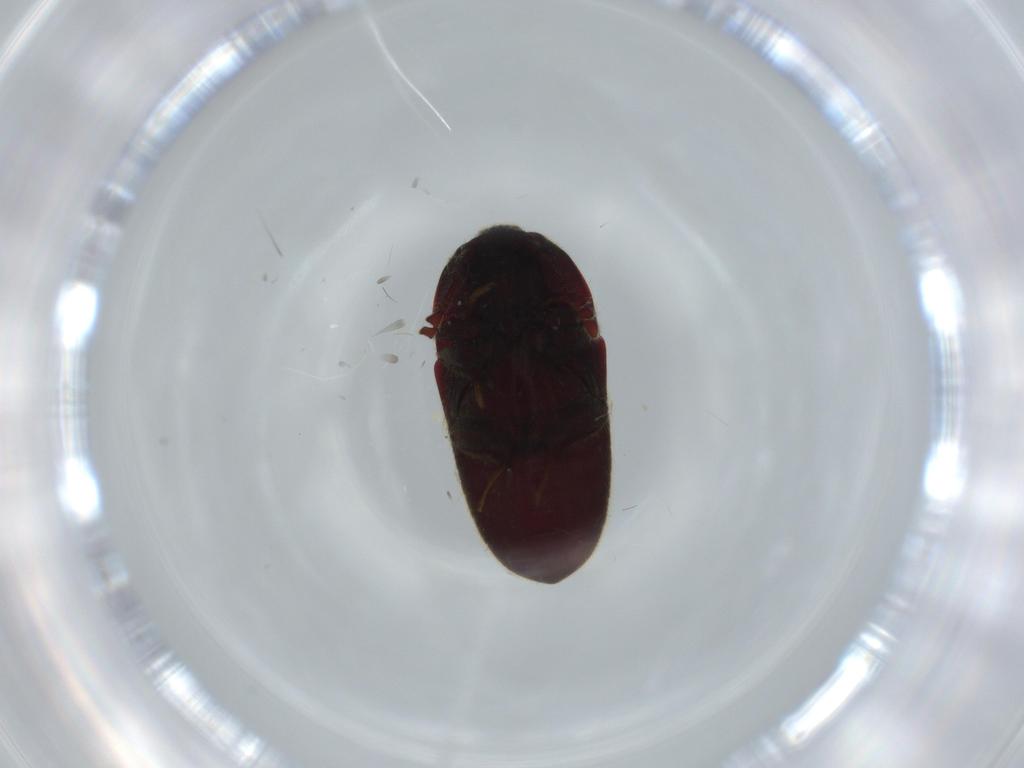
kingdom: Animalia
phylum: Arthropoda
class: Insecta
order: Coleoptera
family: Throscidae
